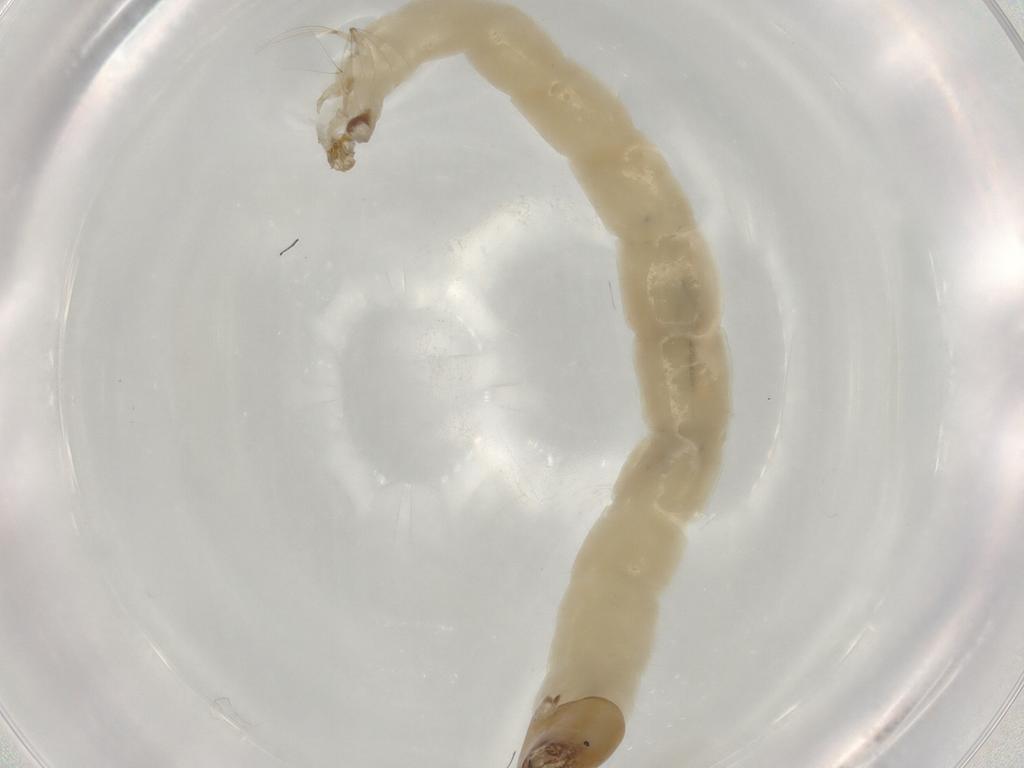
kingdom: Animalia
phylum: Arthropoda
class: Insecta
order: Diptera
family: Chironomidae
